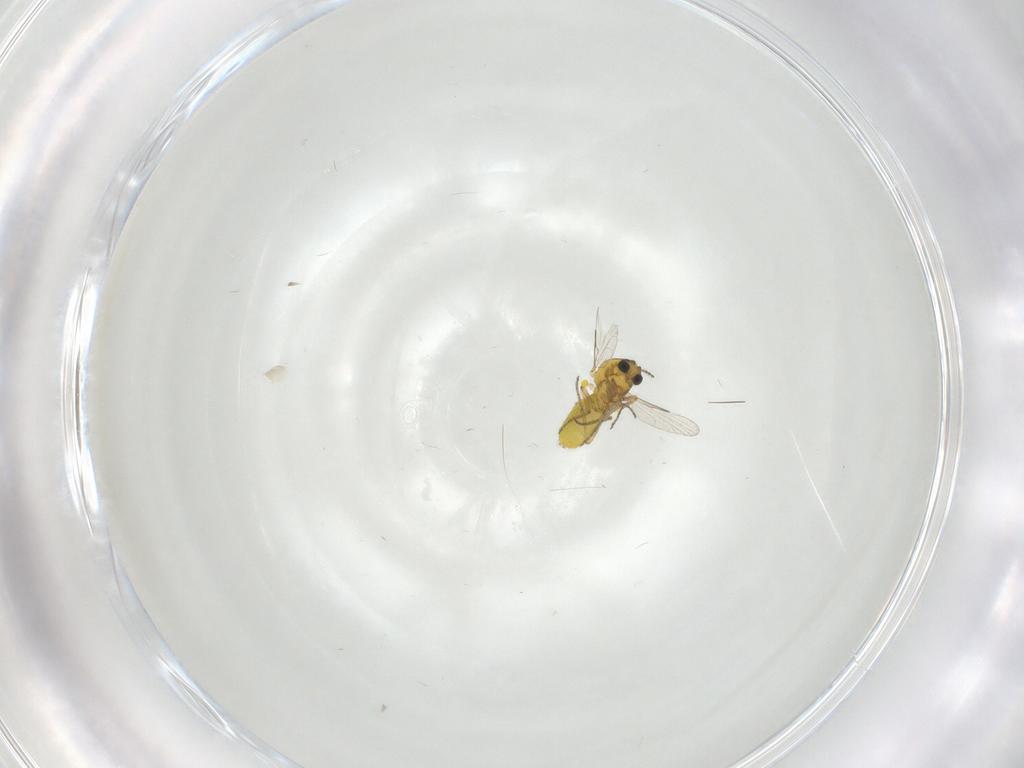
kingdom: Animalia
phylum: Arthropoda
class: Insecta
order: Diptera
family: Ceratopogonidae
